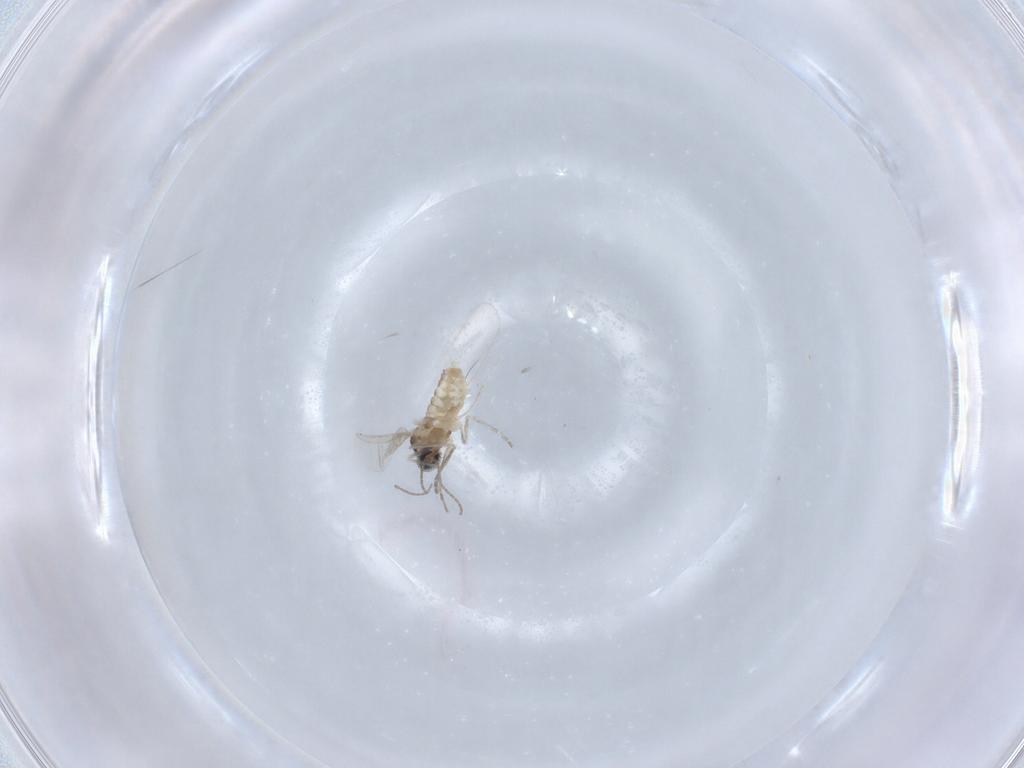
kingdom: Animalia
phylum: Arthropoda
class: Insecta
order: Diptera
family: Cecidomyiidae
